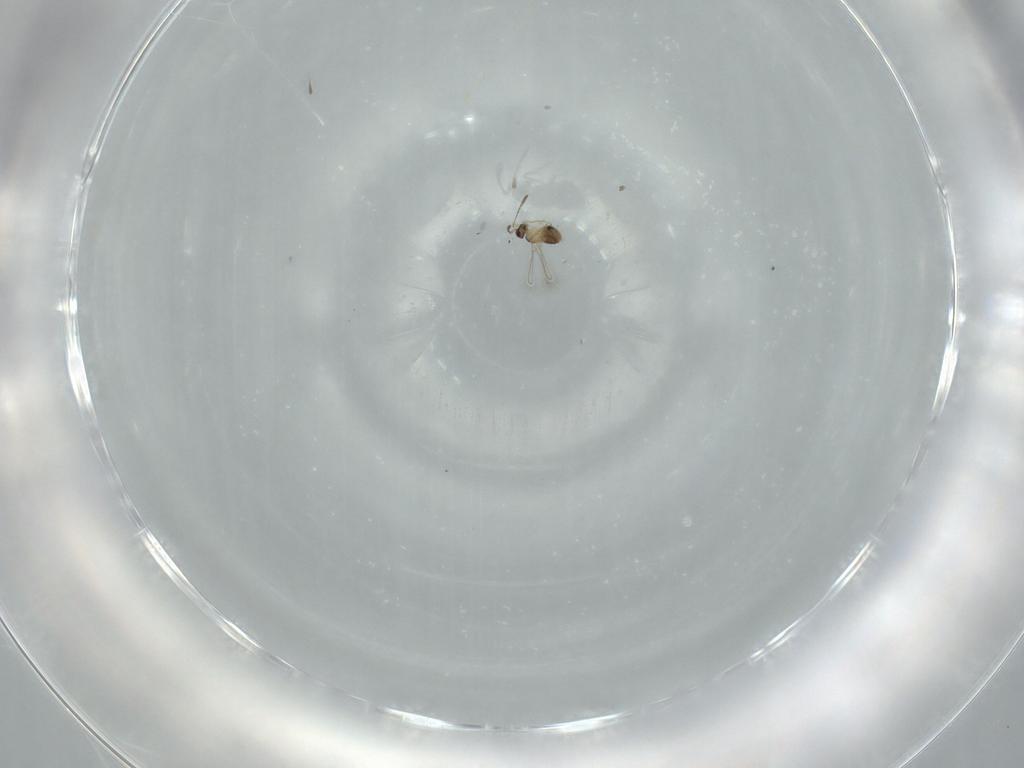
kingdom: Animalia
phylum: Arthropoda
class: Insecta
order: Hymenoptera
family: Mymaridae
